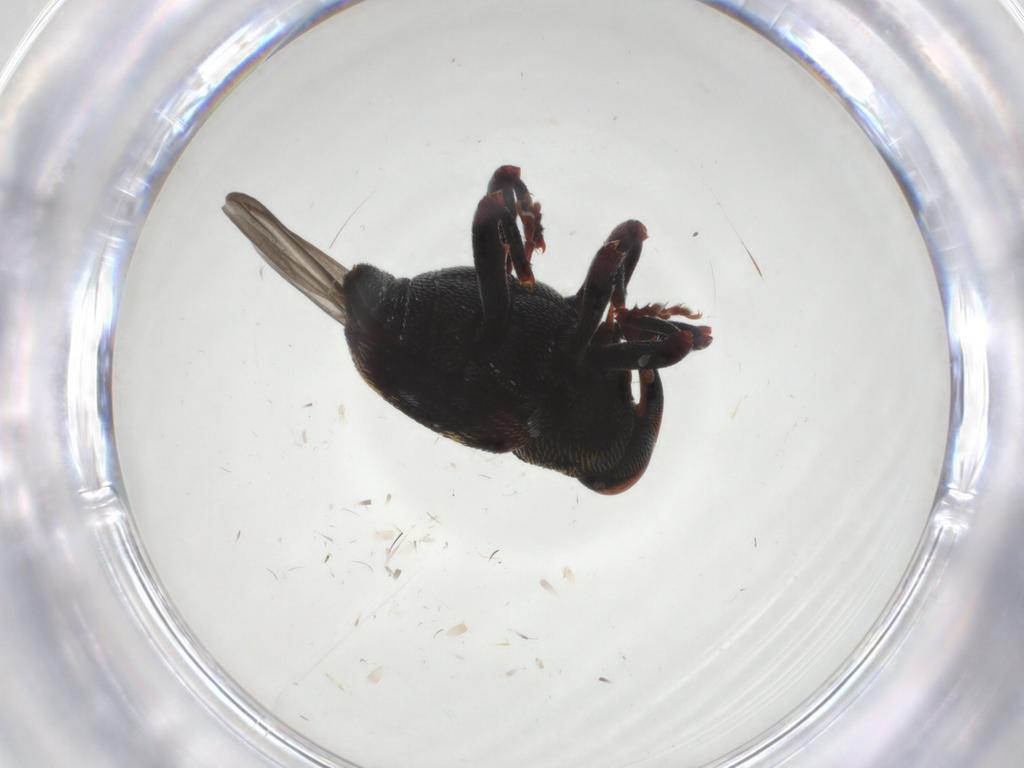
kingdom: Animalia
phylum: Arthropoda
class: Insecta
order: Coleoptera
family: Curculionidae
